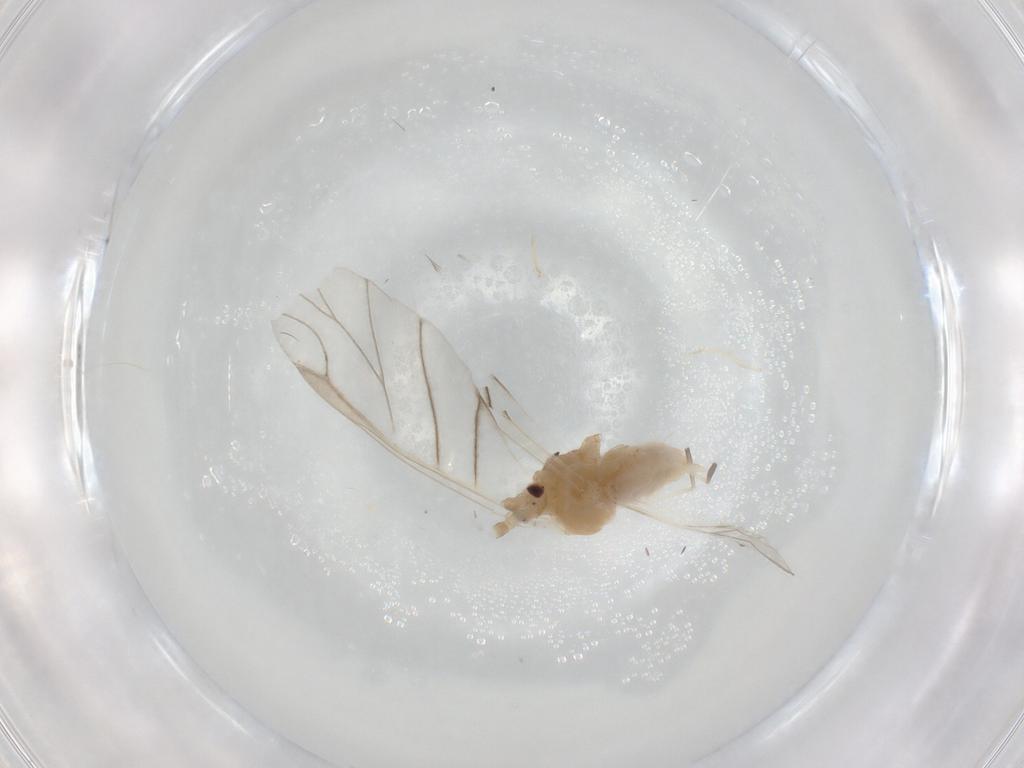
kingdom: Animalia
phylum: Arthropoda
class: Insecta
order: Hemiptera
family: Aphididae
